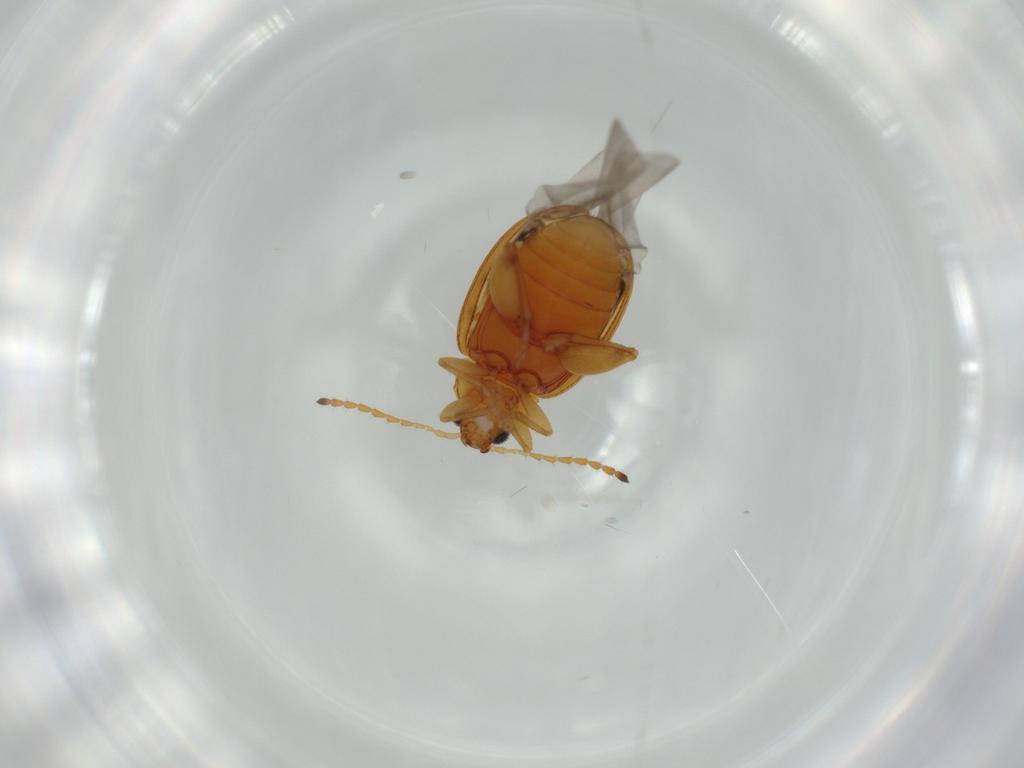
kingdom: Animalia
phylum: Arthropoda
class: Insecta
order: Coleoptera
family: Chrysomelidae
